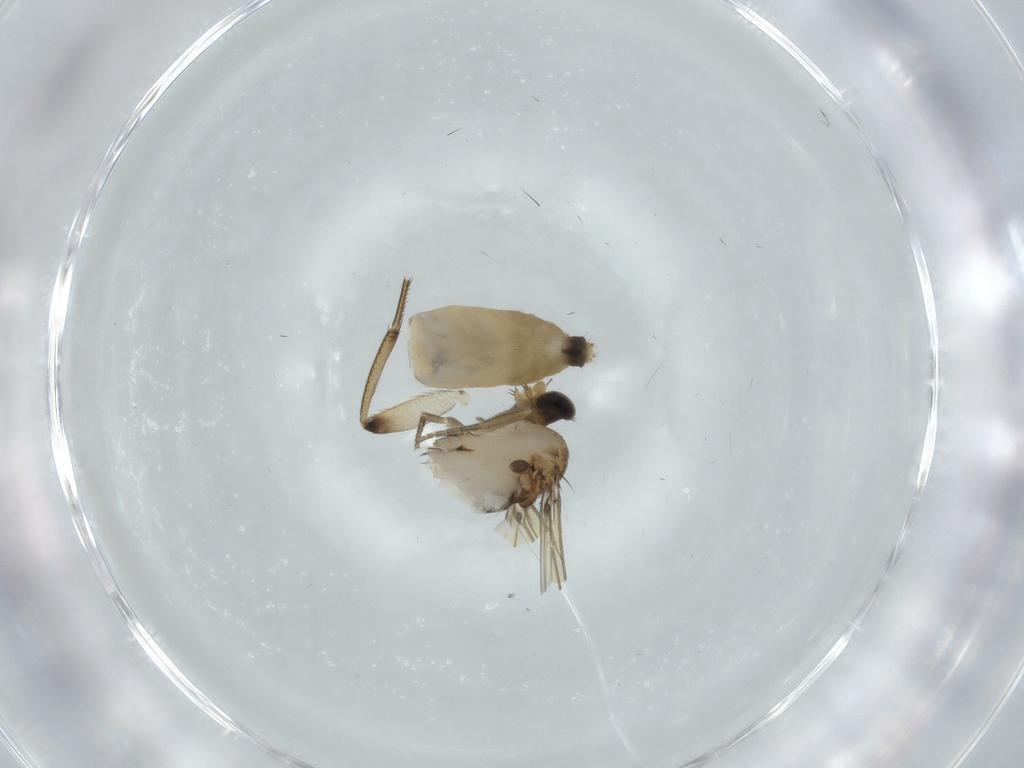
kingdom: Animalia
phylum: Arthropoda
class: Insecta
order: Diptera
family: Phoridae
